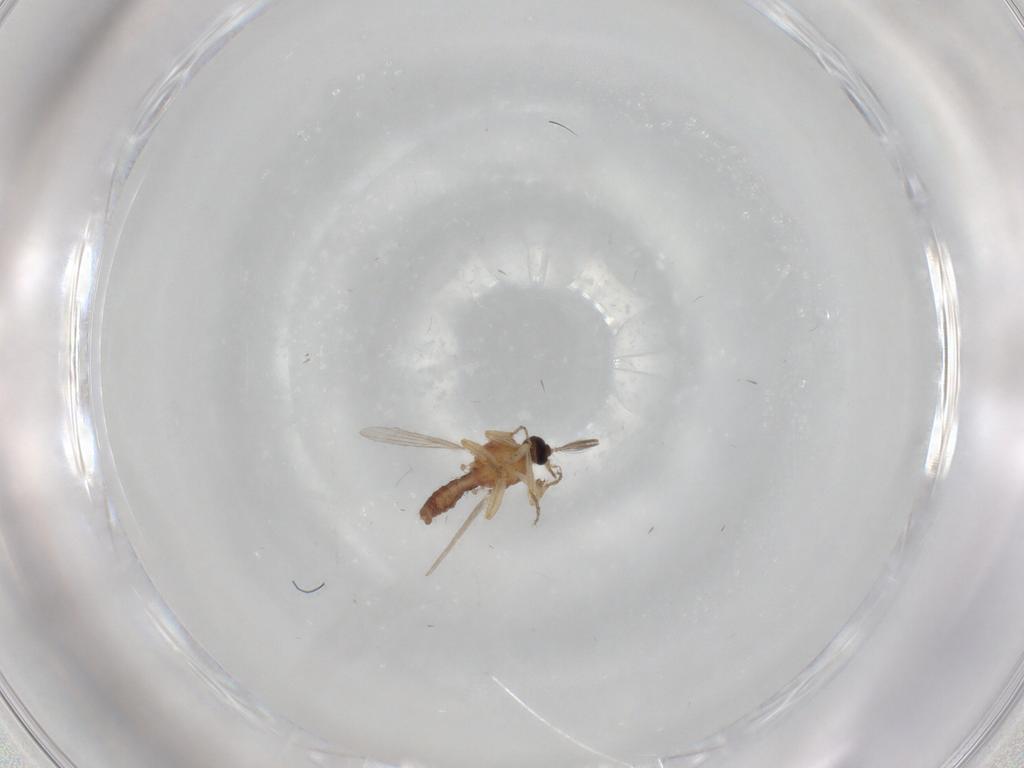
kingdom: Animalia
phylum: Arthropoda
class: Insecta
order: Diptera
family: Ceratopogonidae
